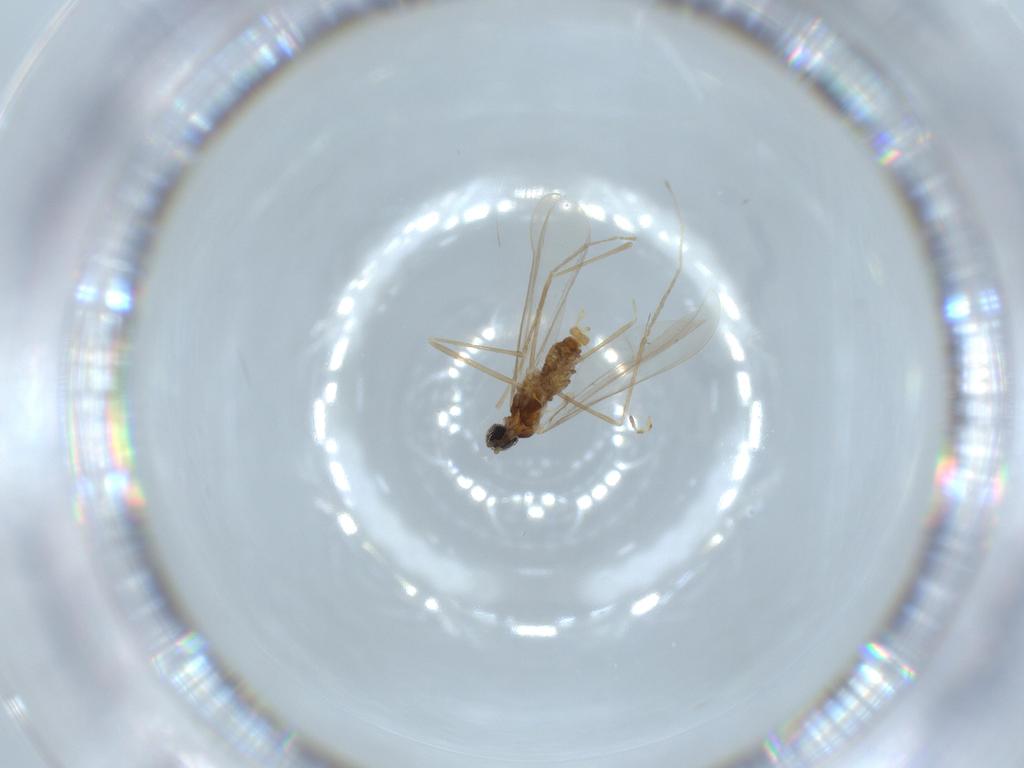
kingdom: Animalia
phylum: Arthropoda
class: Insecta
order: Diptera
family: Cecidomyiidae
